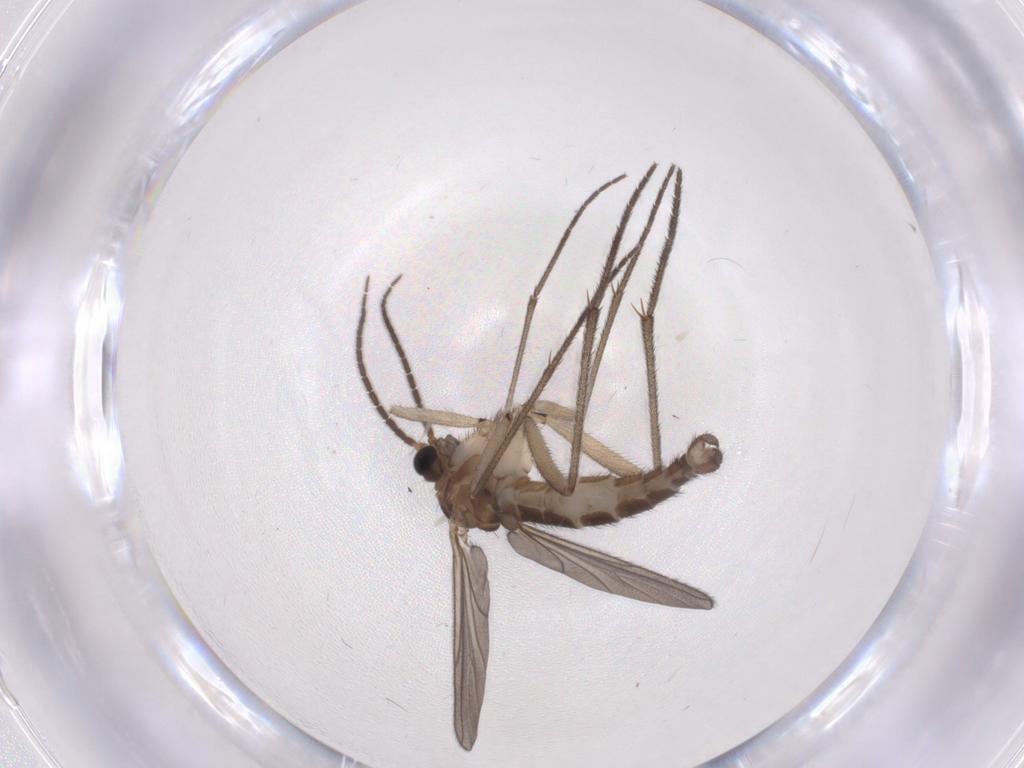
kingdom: Animalia
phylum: Arthropoda
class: Insecta
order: Diptera
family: Sciaridae
